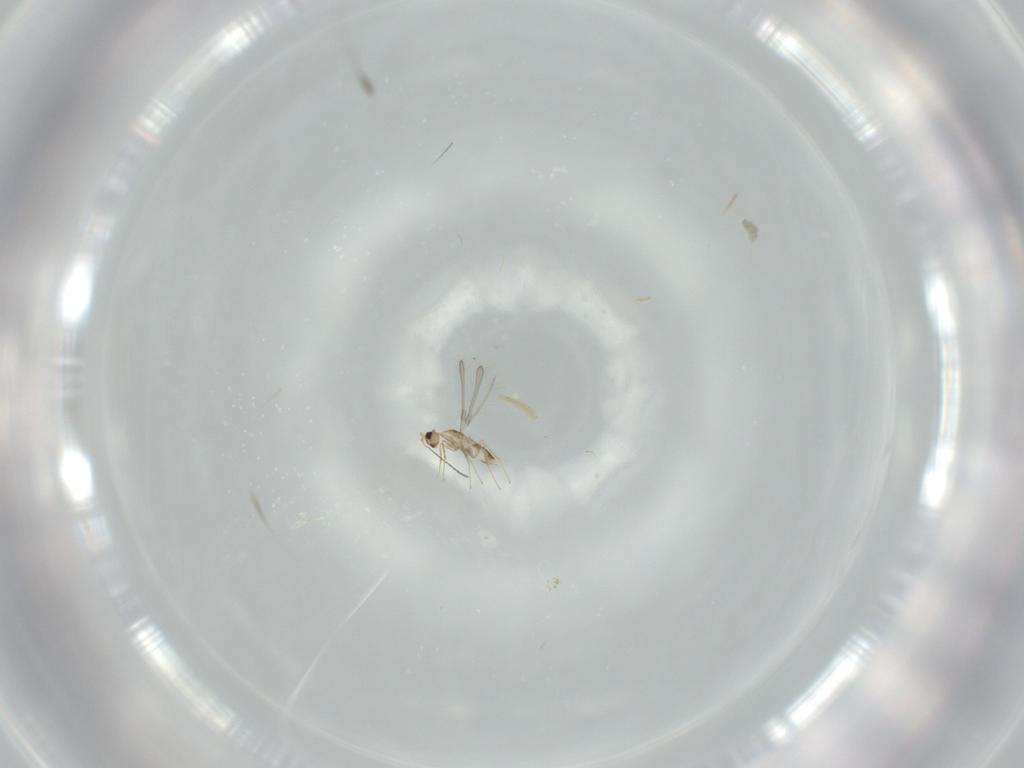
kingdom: Animalia
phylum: Arthropoda
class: Insecta
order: Hymenoptera
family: Mymaridae
